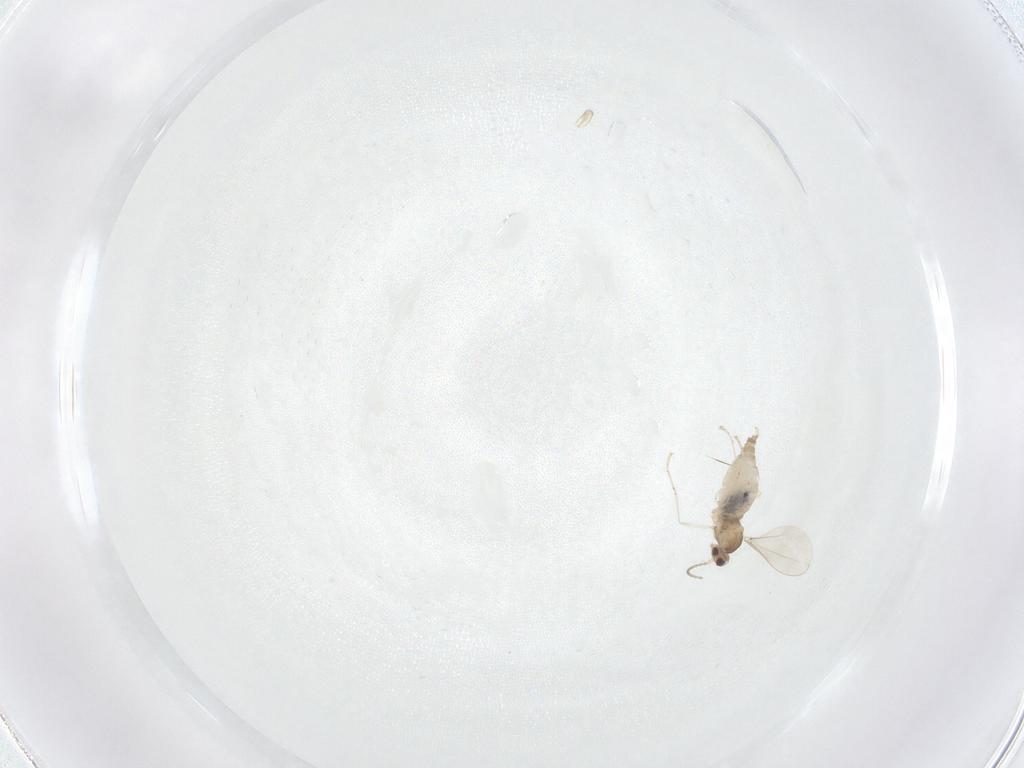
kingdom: Animalia
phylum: Arthropoda
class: Insecta
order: Diptera
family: Cecidomyiidae
